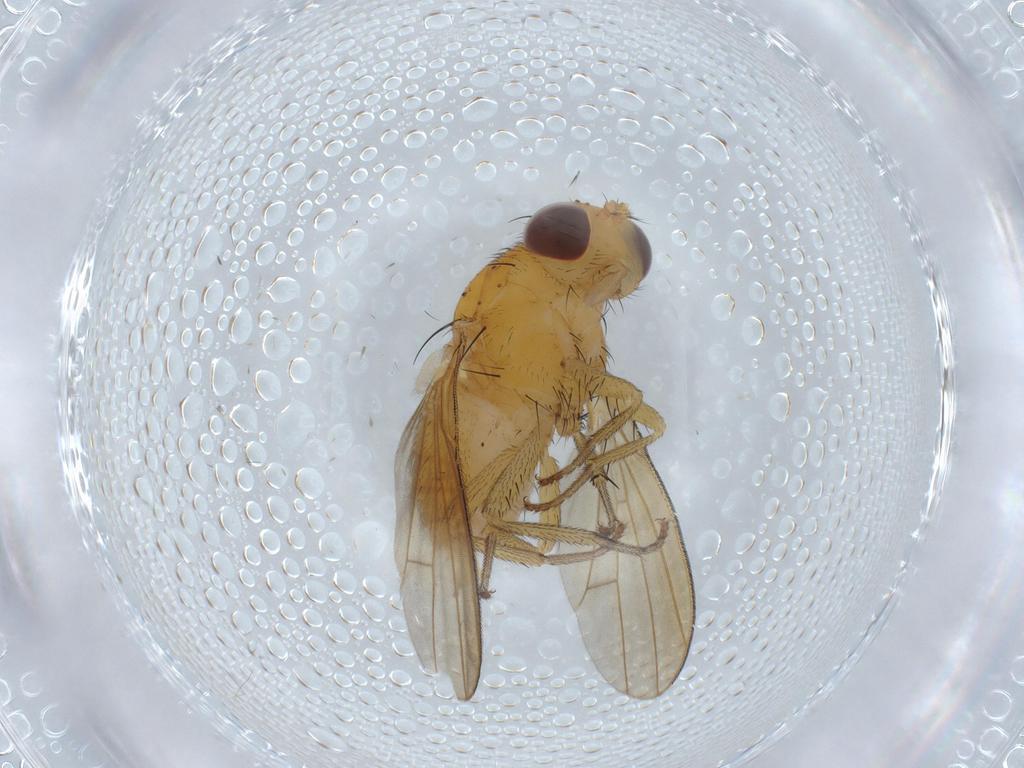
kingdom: Animalia
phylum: Arthropoda
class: Insecta
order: Diptera
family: Lauxaniidae
